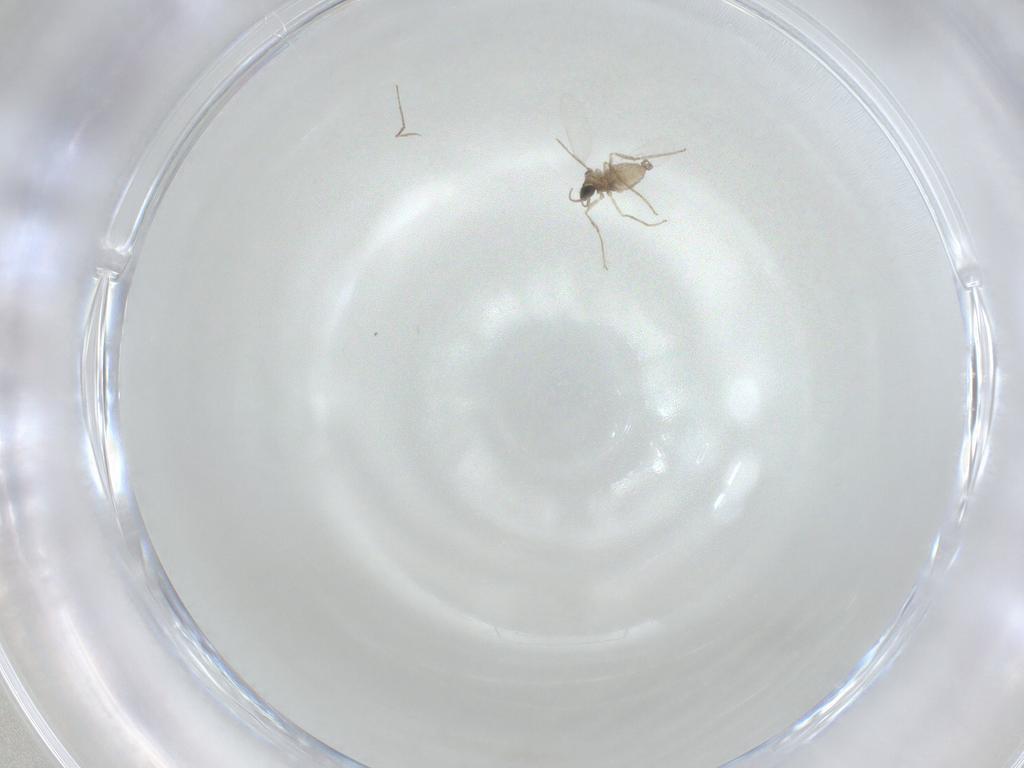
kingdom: Animalia
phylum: Arthropoda
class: Insecta
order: Diptera
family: Cecidomyiidae
